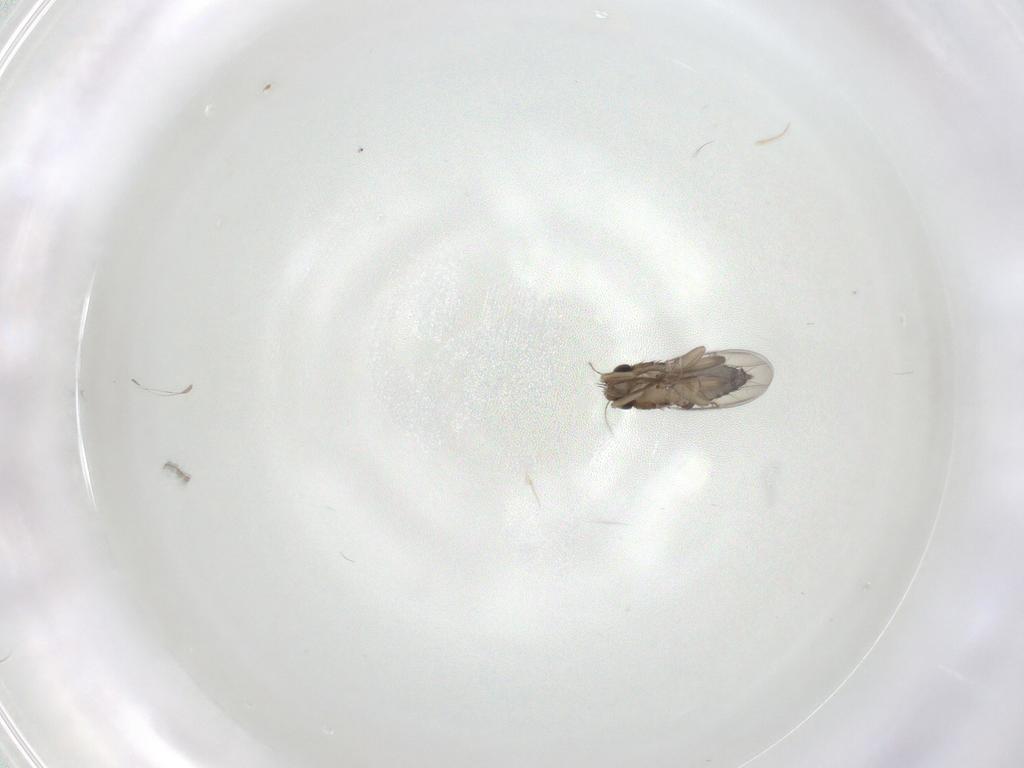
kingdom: Animalia
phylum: Arthropoda
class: Insecta
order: Diptera
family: Phoridae
